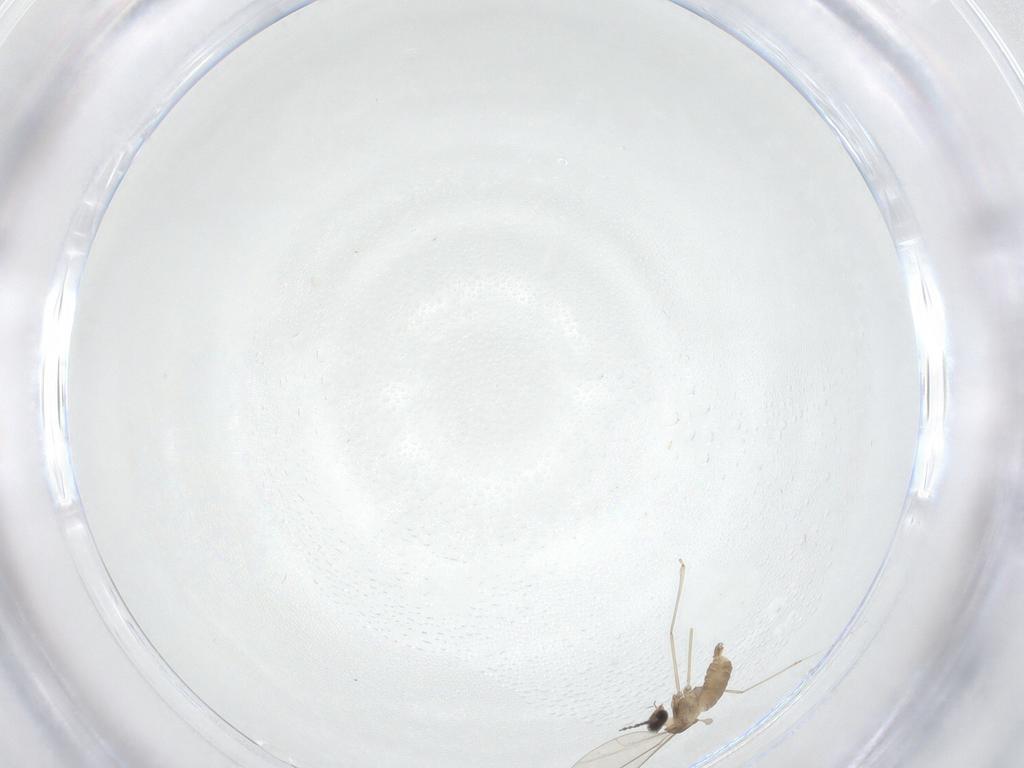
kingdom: Animalia
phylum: Arthropoda
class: Insecta
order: Diptera
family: Cecidomyiidae
